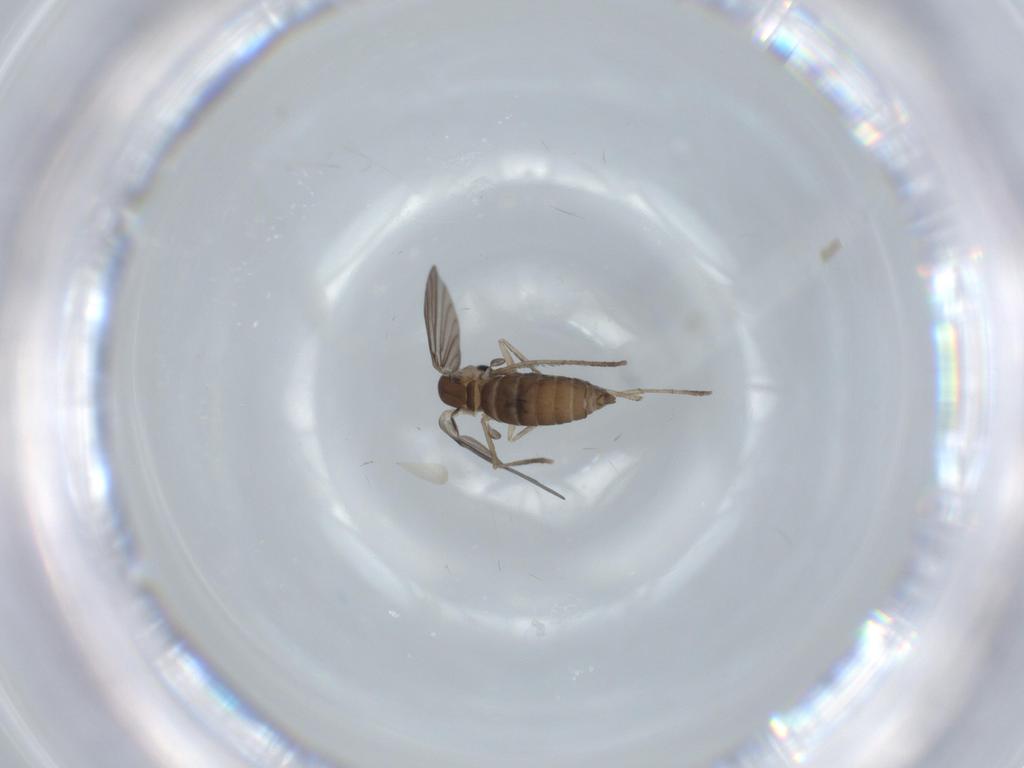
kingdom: Animalia
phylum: Arthropoda
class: Insecta
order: Diptera
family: Psychodidae
